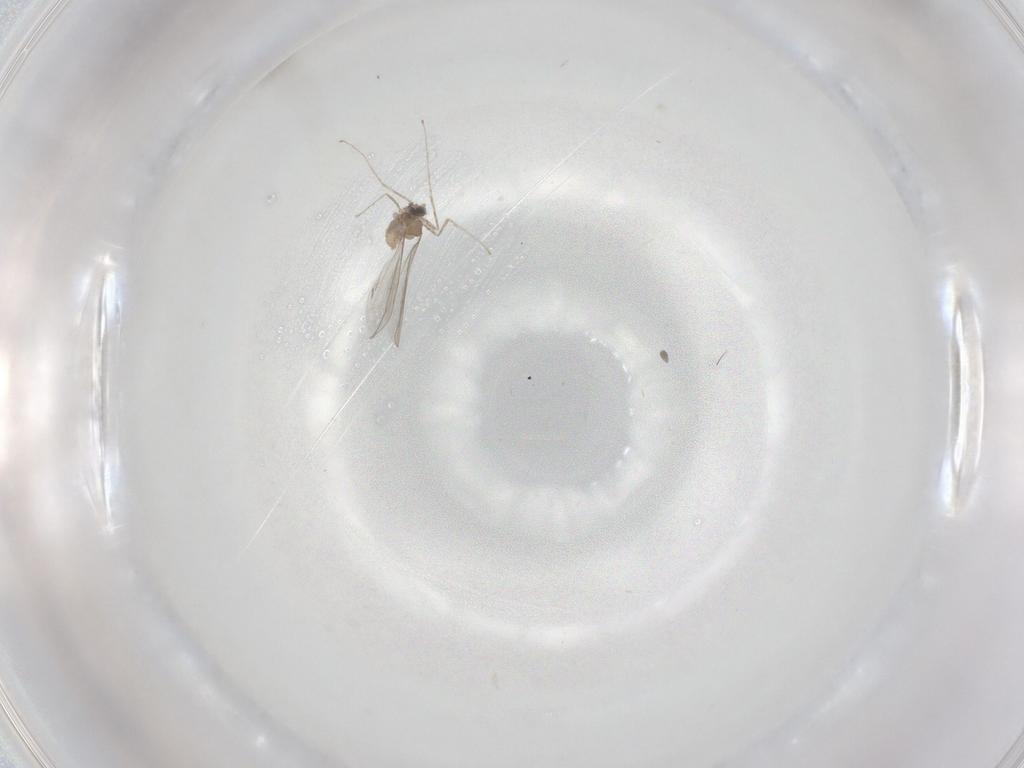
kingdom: Animalia
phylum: Arthropoda
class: Insecta
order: Diptera
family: Cecidomyiidae
